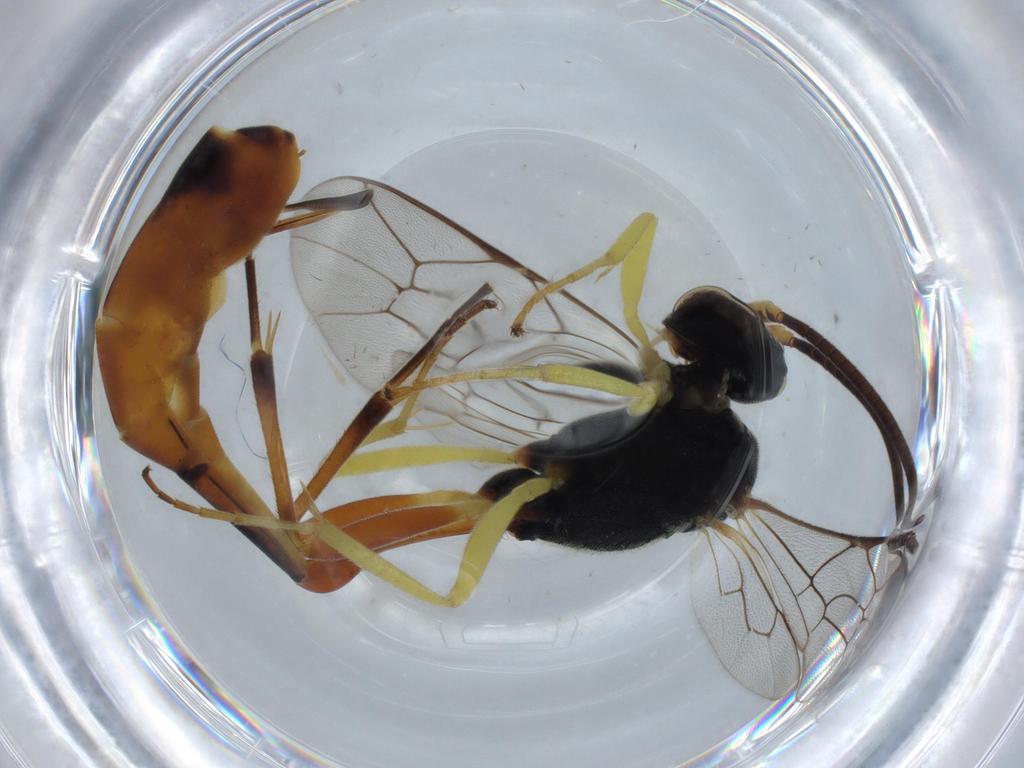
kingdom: Animalia
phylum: Arthropoda
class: Insecta
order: Hymenoptera
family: Ichneumonidae
